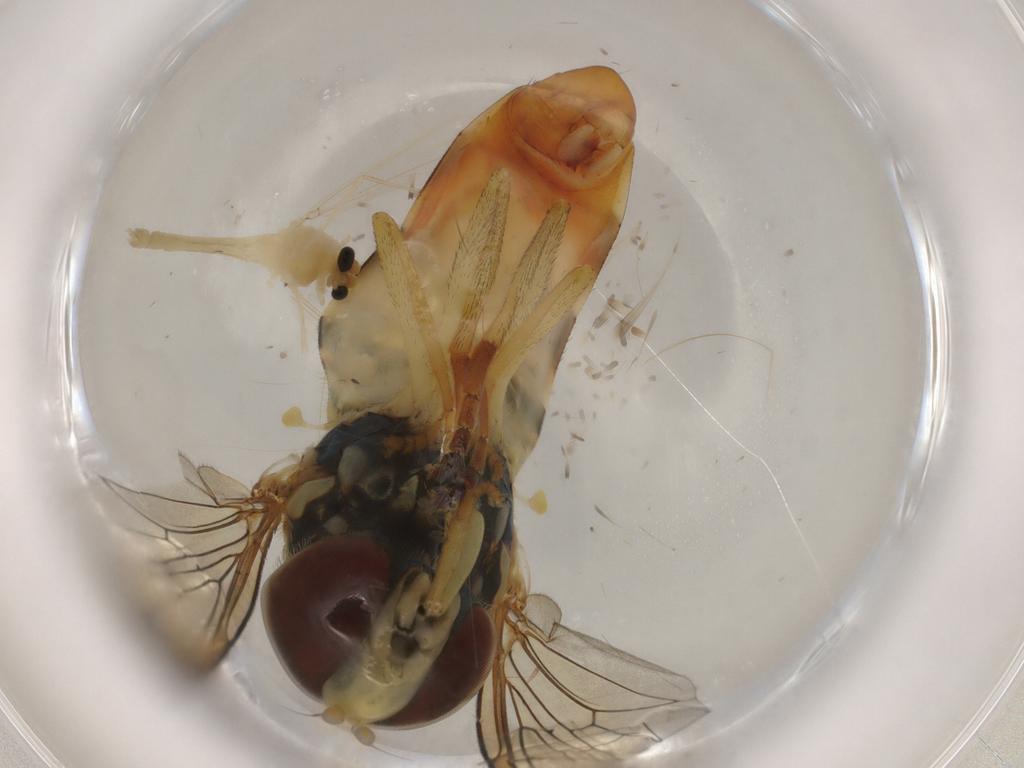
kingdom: Animalia
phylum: Arthropoda
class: Insecta
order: Diptera
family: Chironomidae
